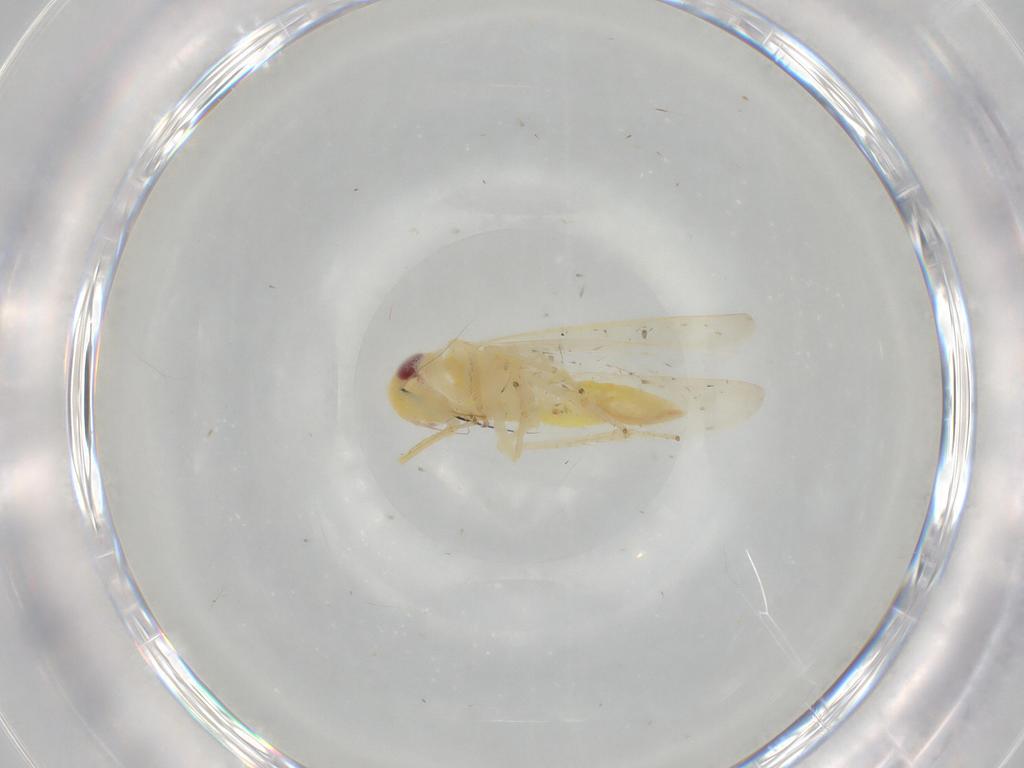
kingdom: Animalia
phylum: Arthropoda
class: Insecta
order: Hemiptera
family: Cicadellidae
